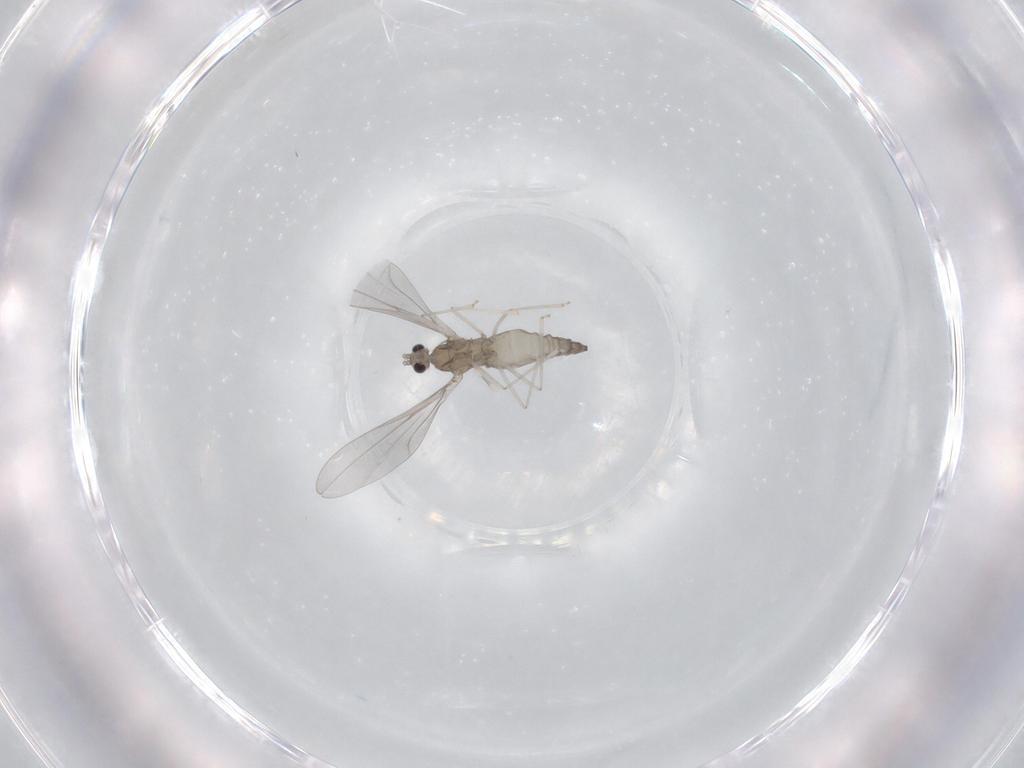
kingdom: Animalia
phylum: Arthropoda
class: Insecta
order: Diptera
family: Cecidomyiidae
